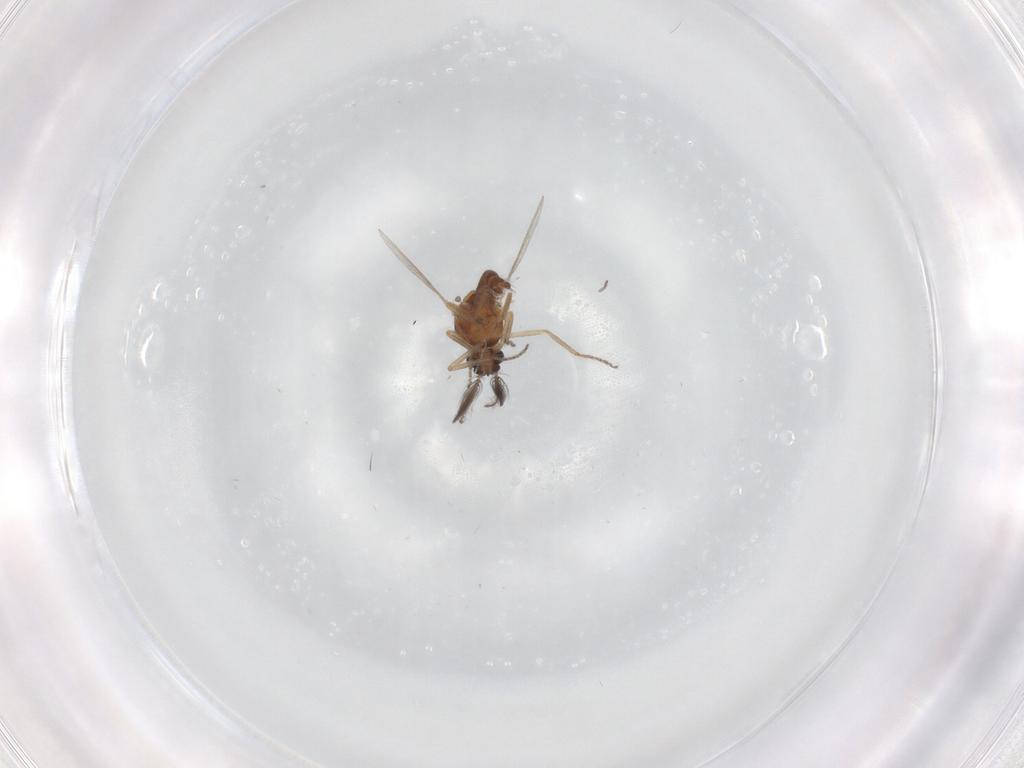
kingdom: Animalia
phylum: Arthropoda
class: Insecta
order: Diptera
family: Ceratopogonidae
